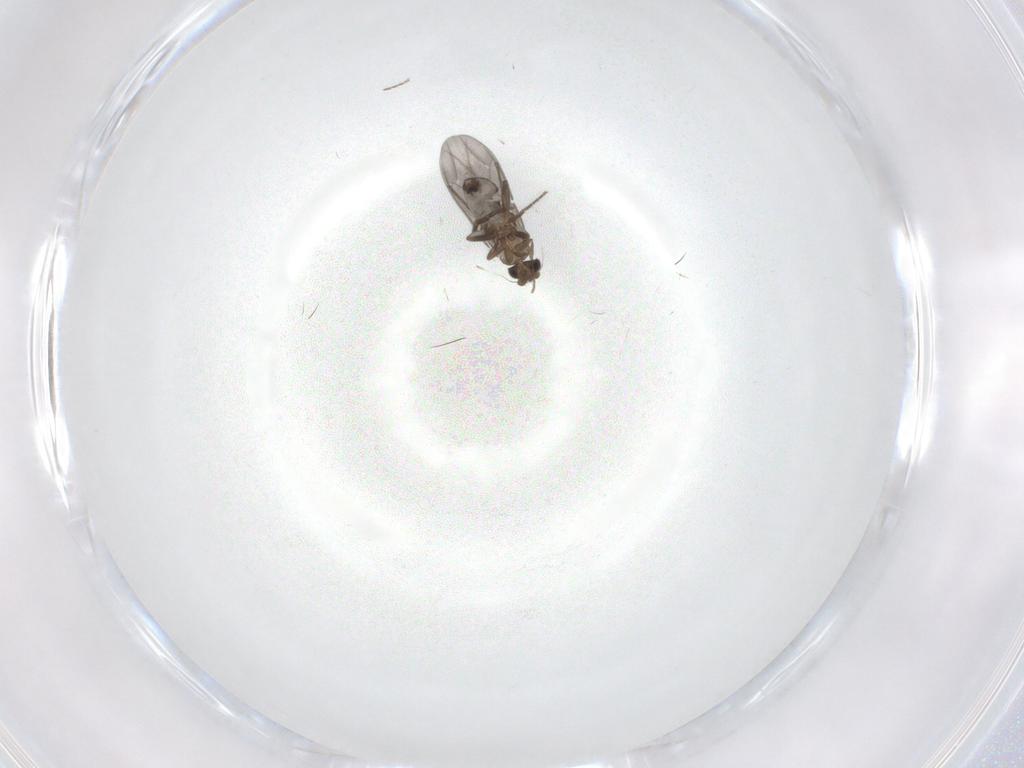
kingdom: Animalia
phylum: Arthropoda
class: Insecta
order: Diptera
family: Phoridae
